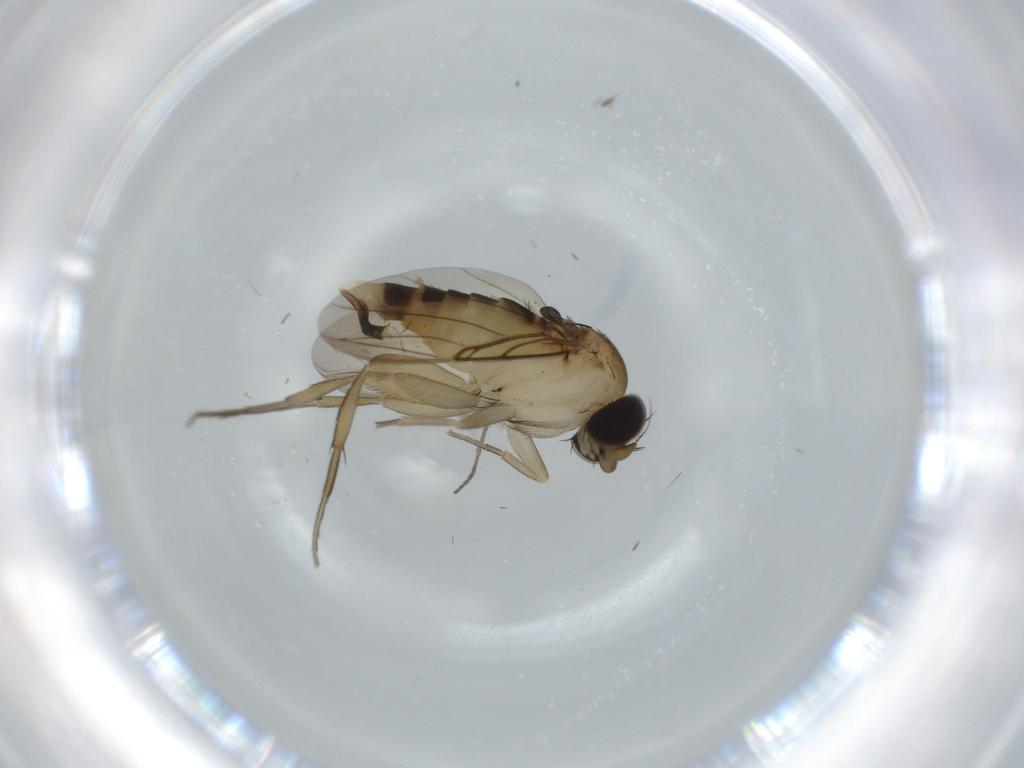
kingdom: Animalia
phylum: Arthropoda
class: Insecta
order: Diptera
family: Phoridae
